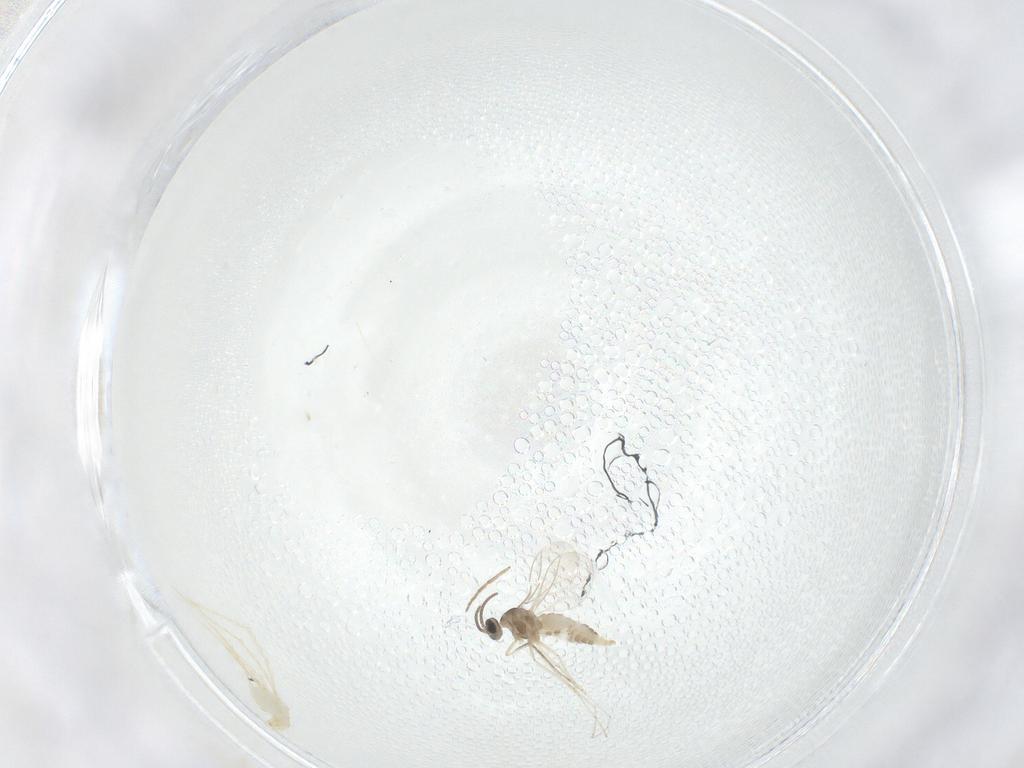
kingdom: Animalia
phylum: Arthropoda
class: Insecta
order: Diptera
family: Cecidomyiidae
